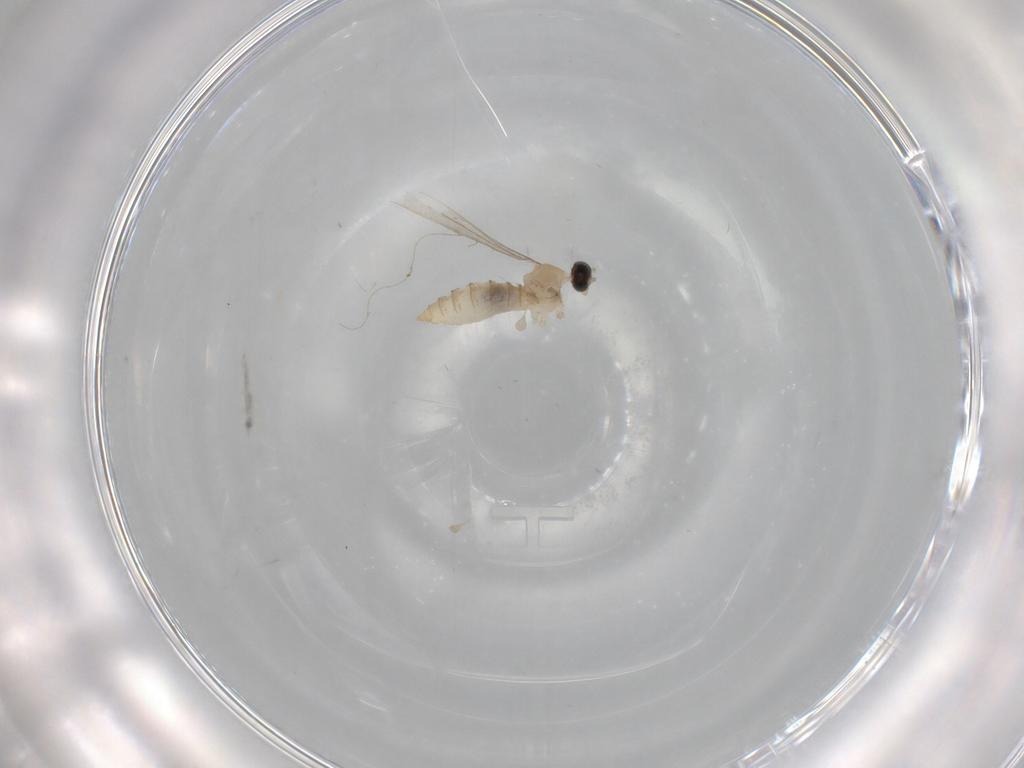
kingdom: Animalia
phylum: Arthropoda
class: Insecta
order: Diptera
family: Cecidomyiidae
